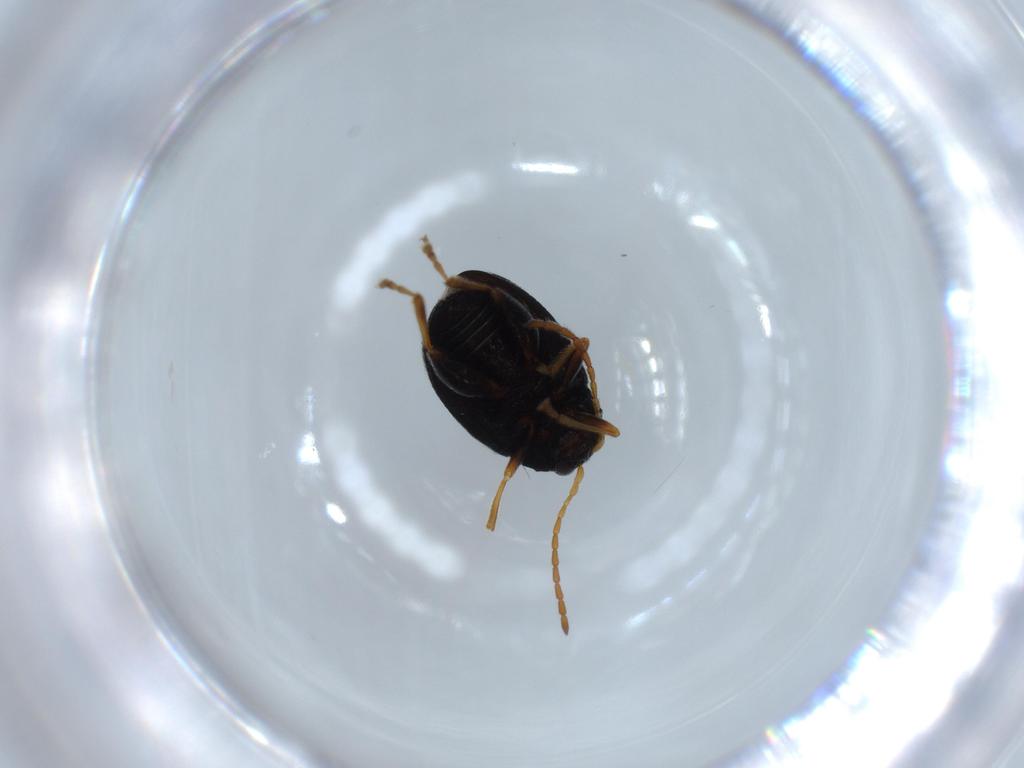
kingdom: Animalia
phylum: Arthropoda
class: Insecta
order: Coleoptera
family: Chrysomelidae
